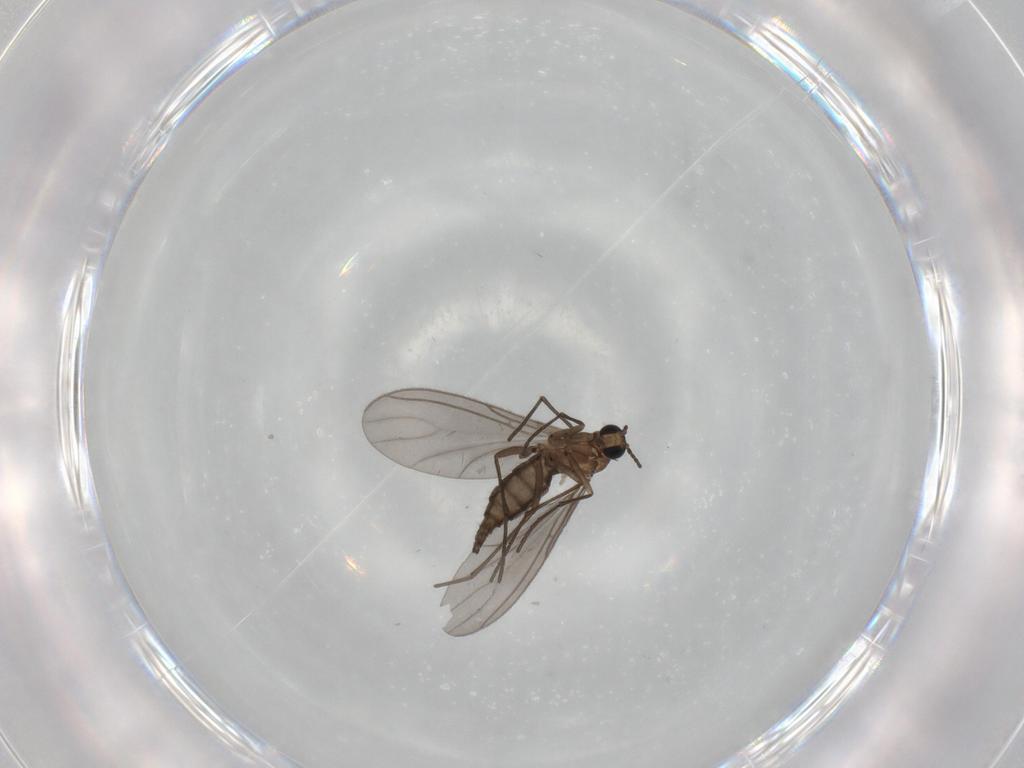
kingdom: Animalia
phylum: Arthropoda
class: Insecta
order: Diptera
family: Sciaridae
